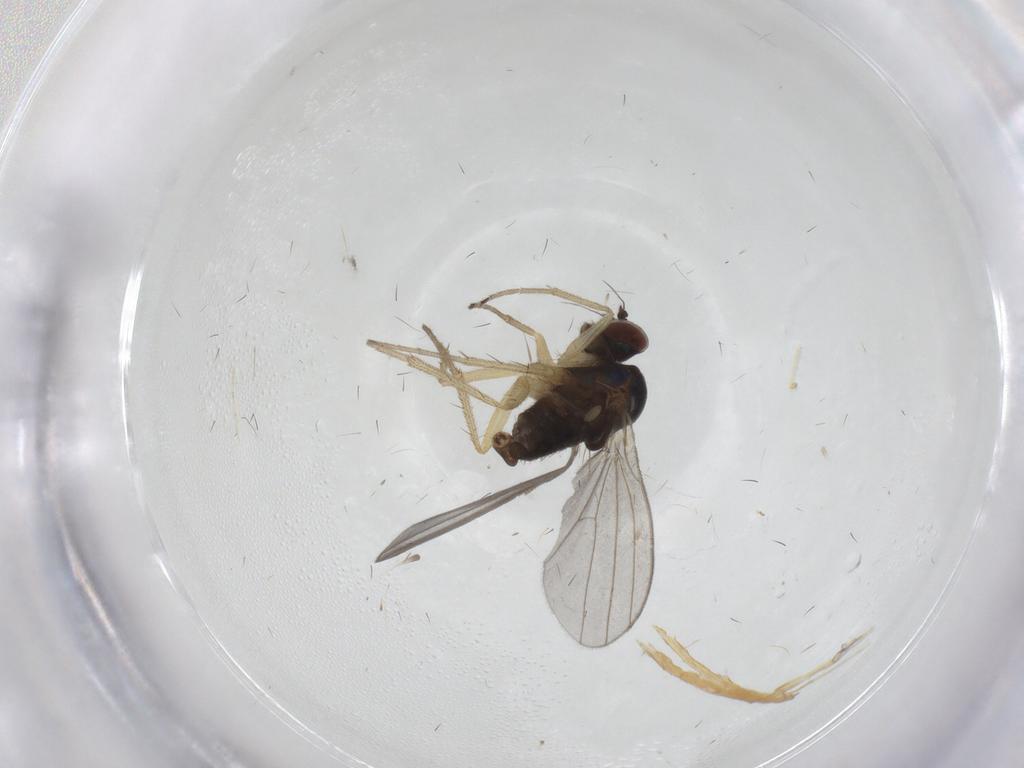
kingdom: Animalia
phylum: Arthropoda
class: Insecta
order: Diptera
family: Dolichopodidae
